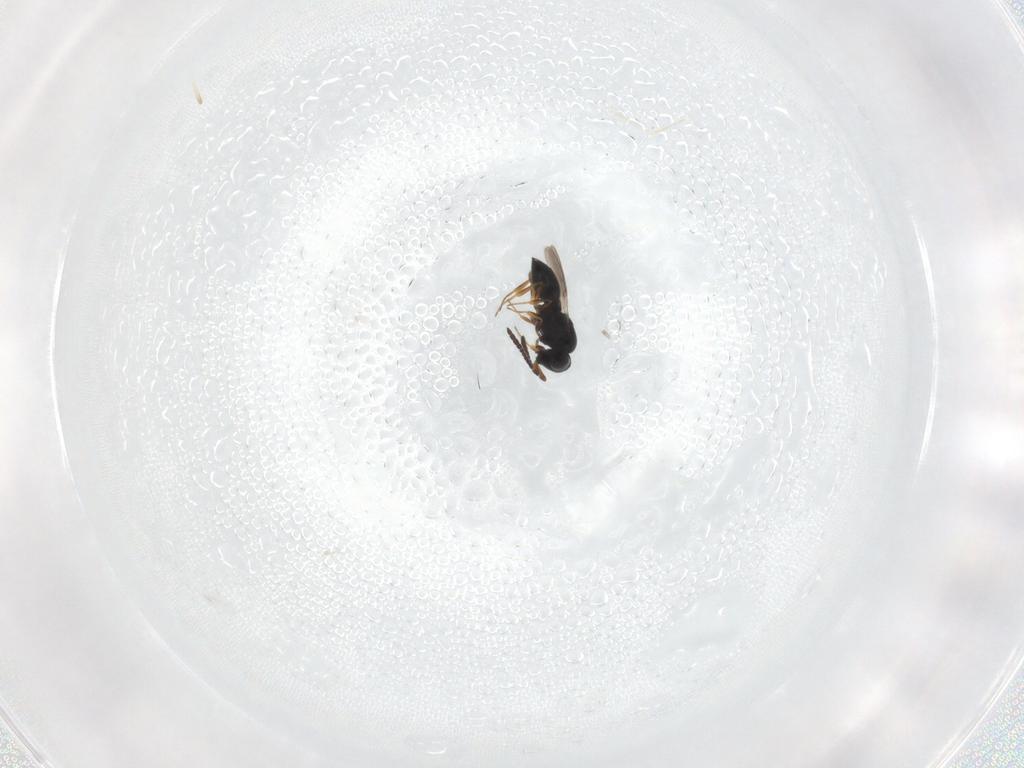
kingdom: Animalia
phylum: Arthropoda
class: Insecta
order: Hymenoptera
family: Scelionidae
